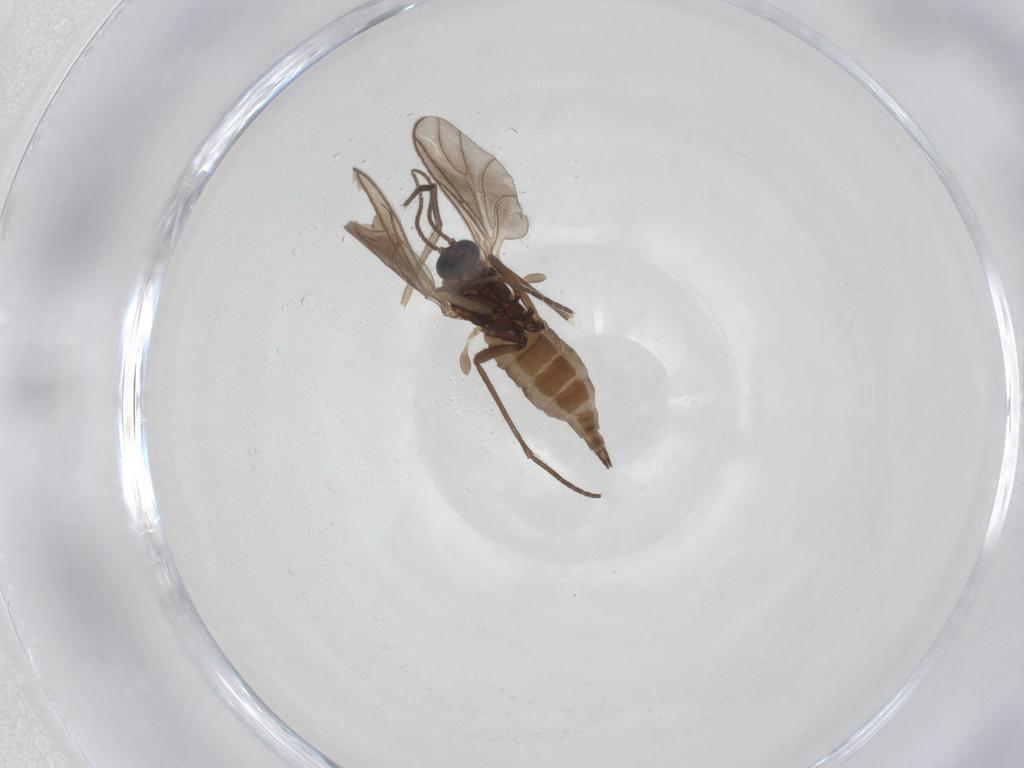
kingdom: Animalia
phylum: Arthropoda
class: Insecta
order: Diptera
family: Sciaridae
